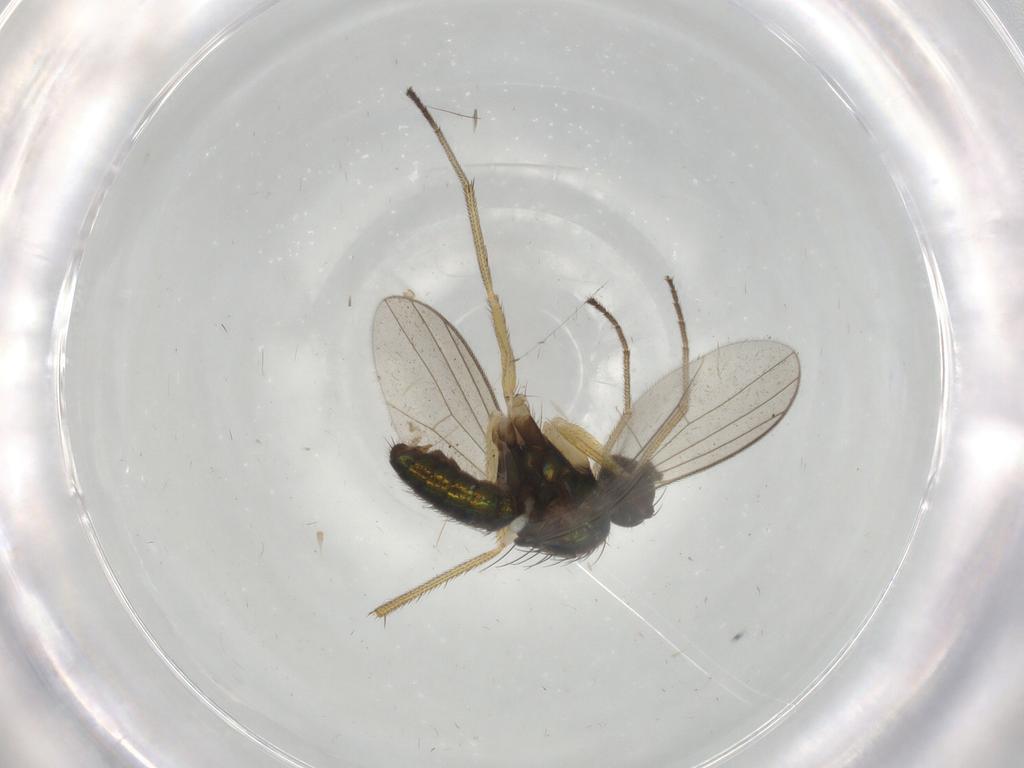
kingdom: Animalia
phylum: Arthropoda
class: Insecta
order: Diptera
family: Dolichopodidae
